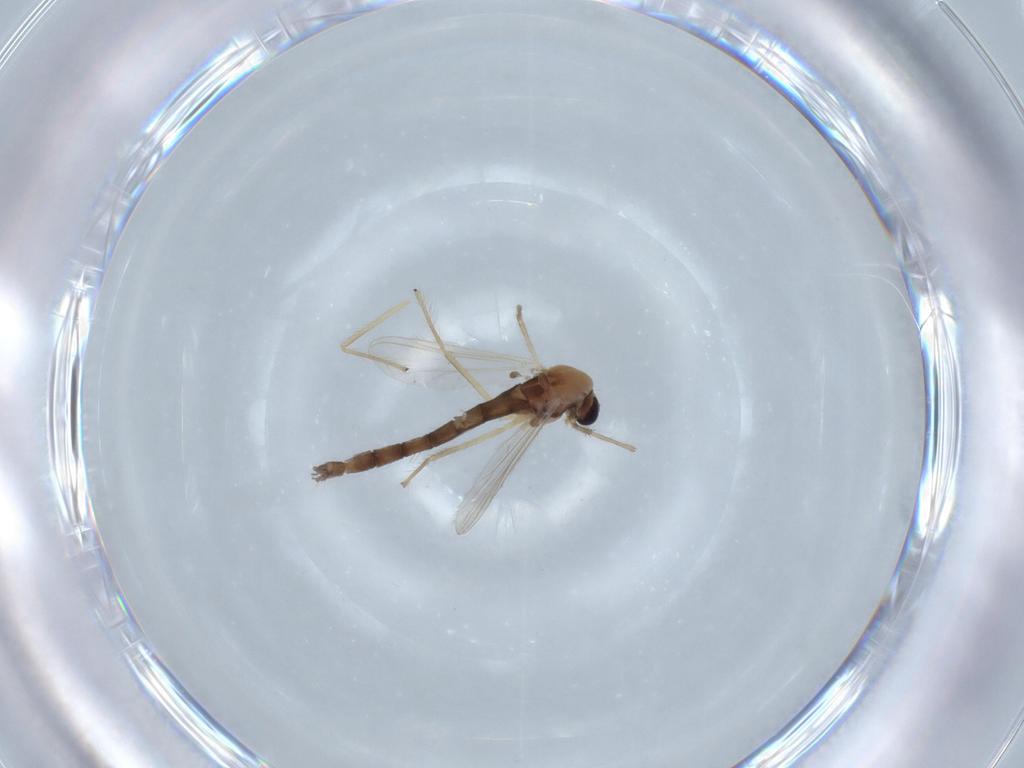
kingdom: Animalia
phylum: Arthropoda
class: Insecta
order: Diptera
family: Chironomidae
